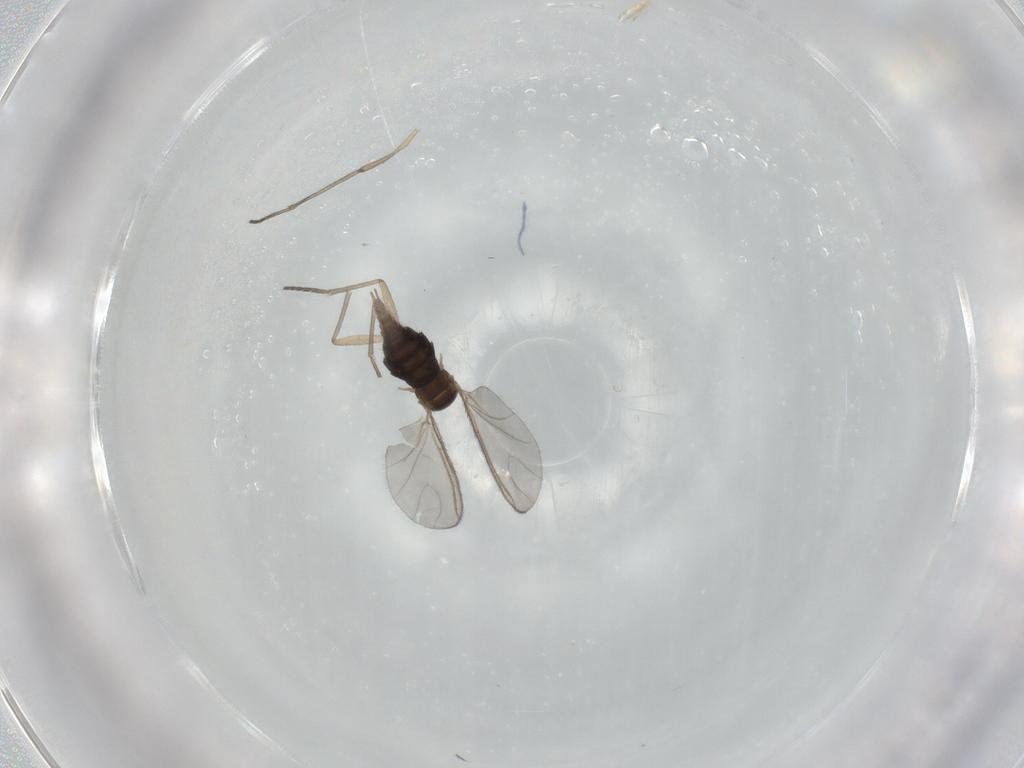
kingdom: Animalia
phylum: Arthropoda
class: Insecta
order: Diptera
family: Sciaridae
